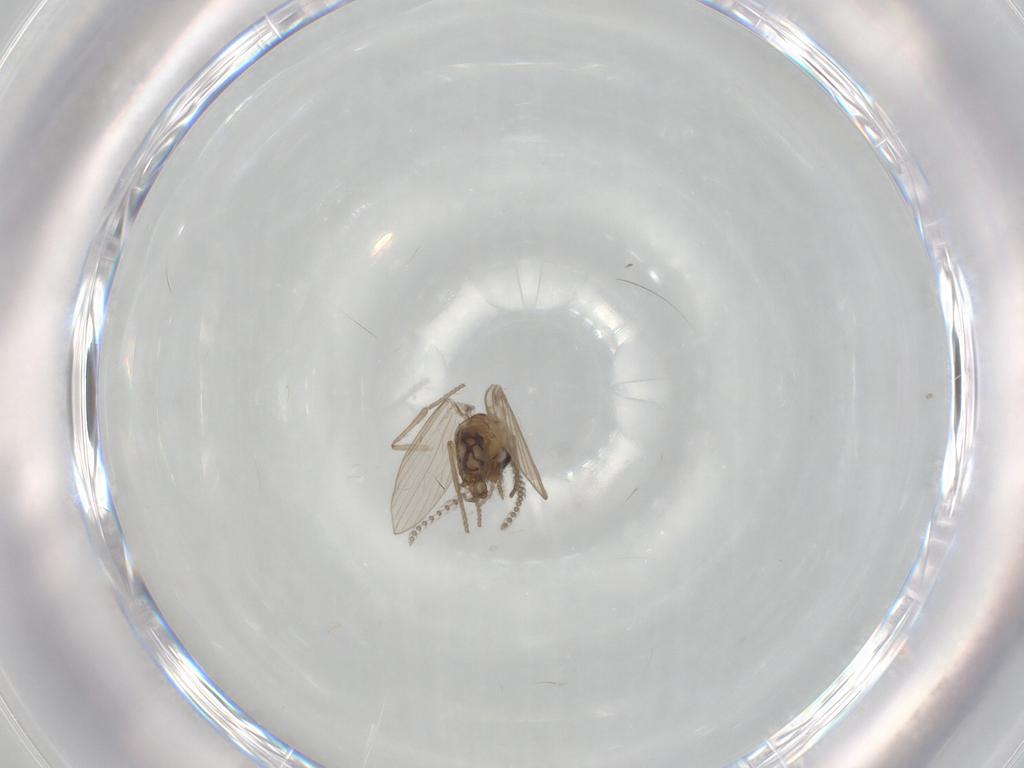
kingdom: Animalia
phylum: Arthropoda
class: Insecta
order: Diptera
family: Psychodidae
